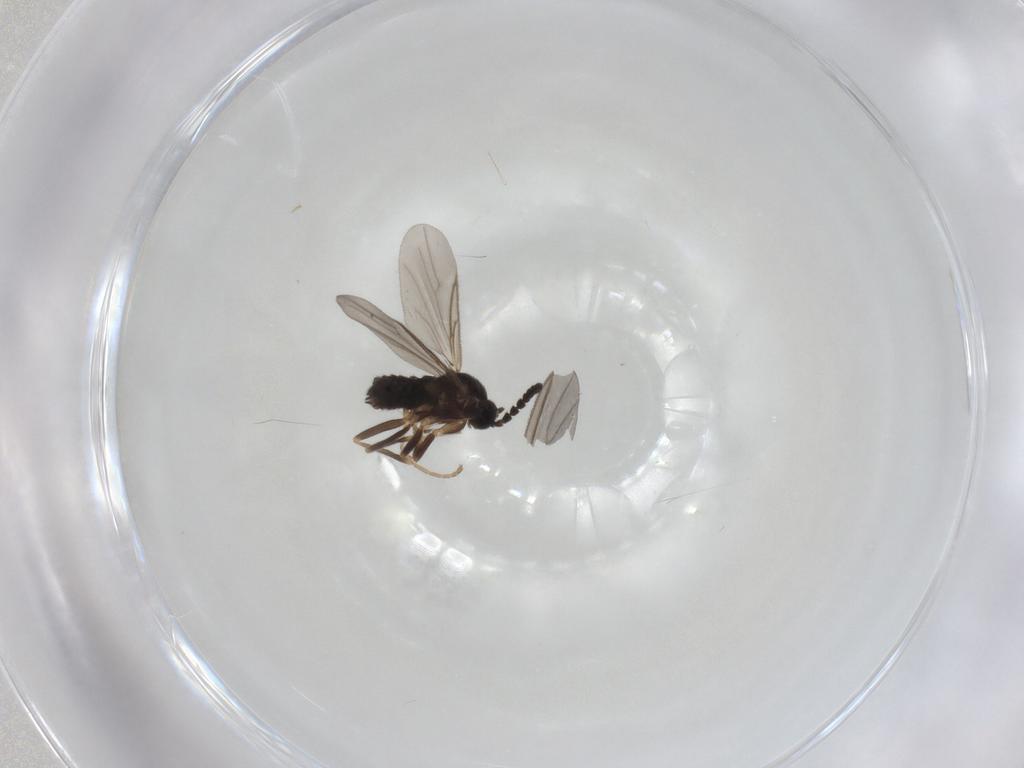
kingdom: Animalia
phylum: Arthropoda
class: Insecta
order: Diptera
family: Scatopsidae
